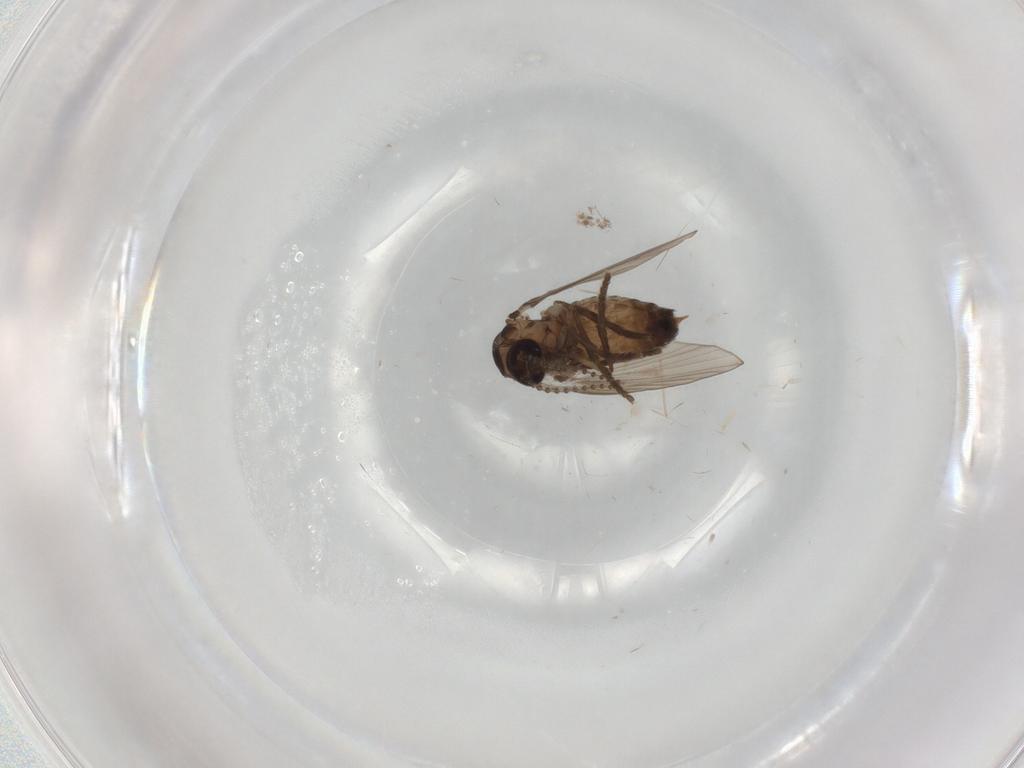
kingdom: Animalia
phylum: Arthropoda
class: Insecta
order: Diptera
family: Psychodidae
